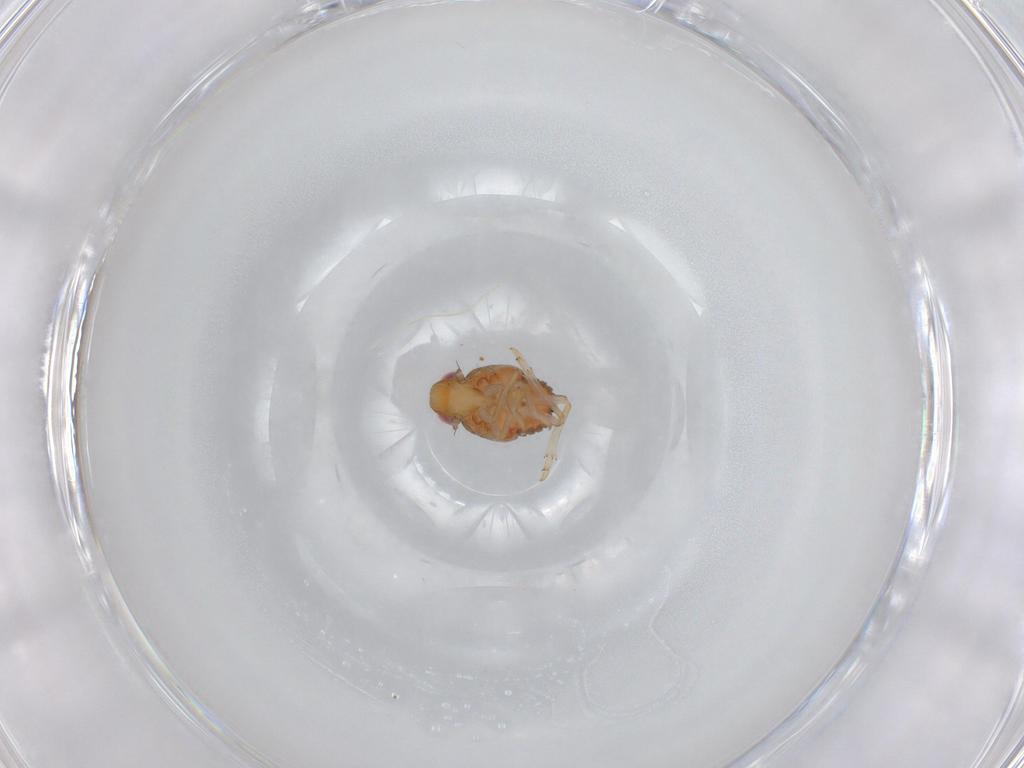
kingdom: Animalia
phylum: Arthropoda
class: Insecta
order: Hemiptera
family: Issidae
